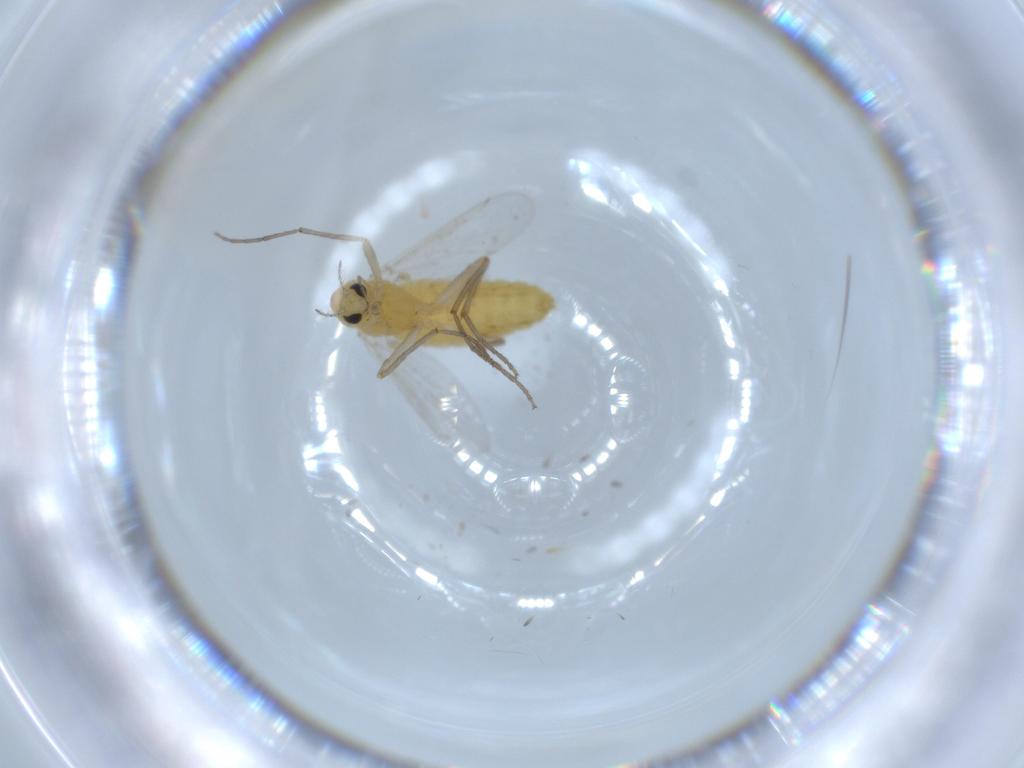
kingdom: Animalia
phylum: Arthropoda
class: Insecta
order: Diptera
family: Chironomidae
